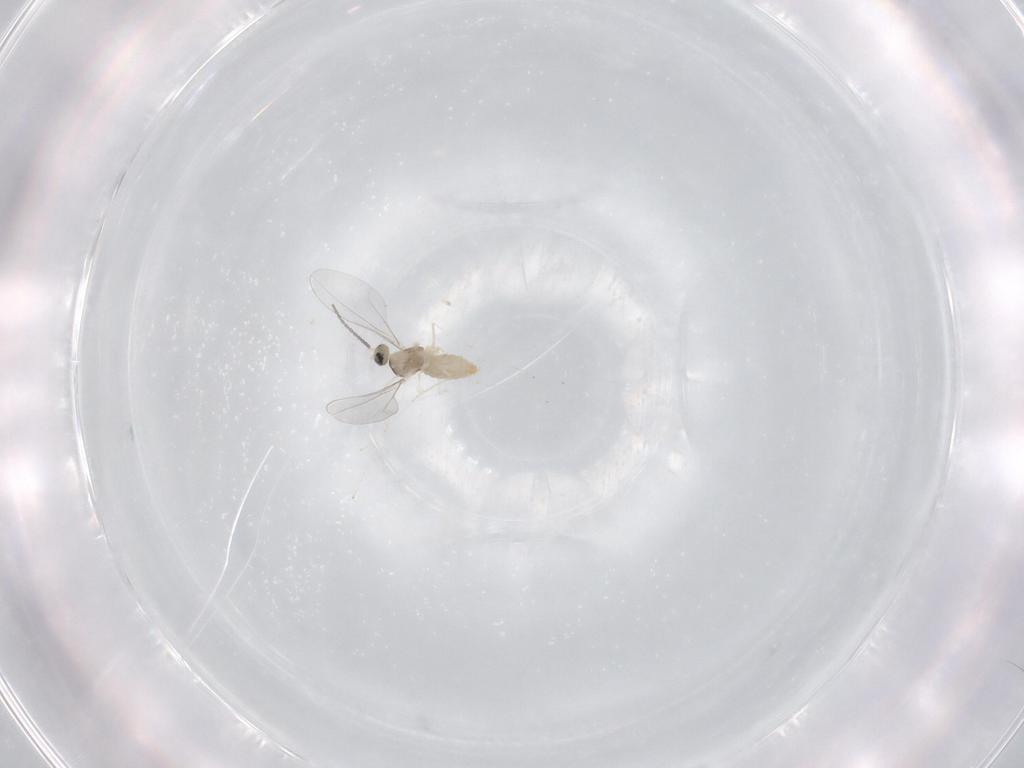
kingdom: Animalia
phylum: Arthropoda
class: Insecta
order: Diptera
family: Cecidomyiidae
